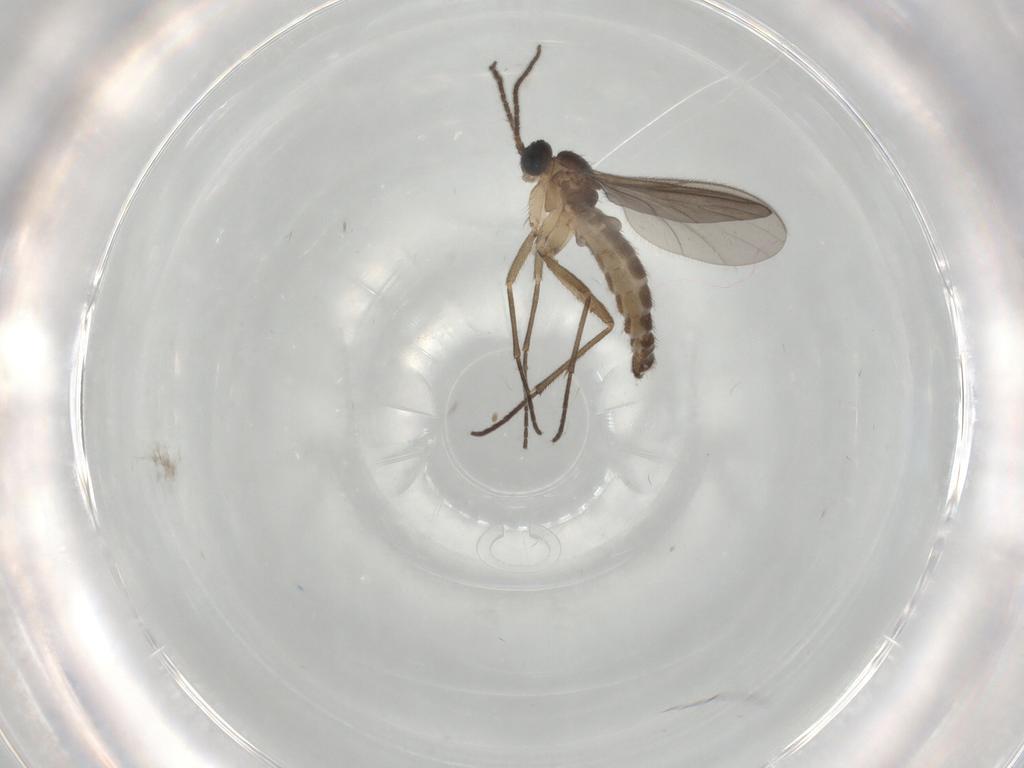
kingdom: Animalia
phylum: Arthropoda
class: Insecta
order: Diptera
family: Sciaridae
